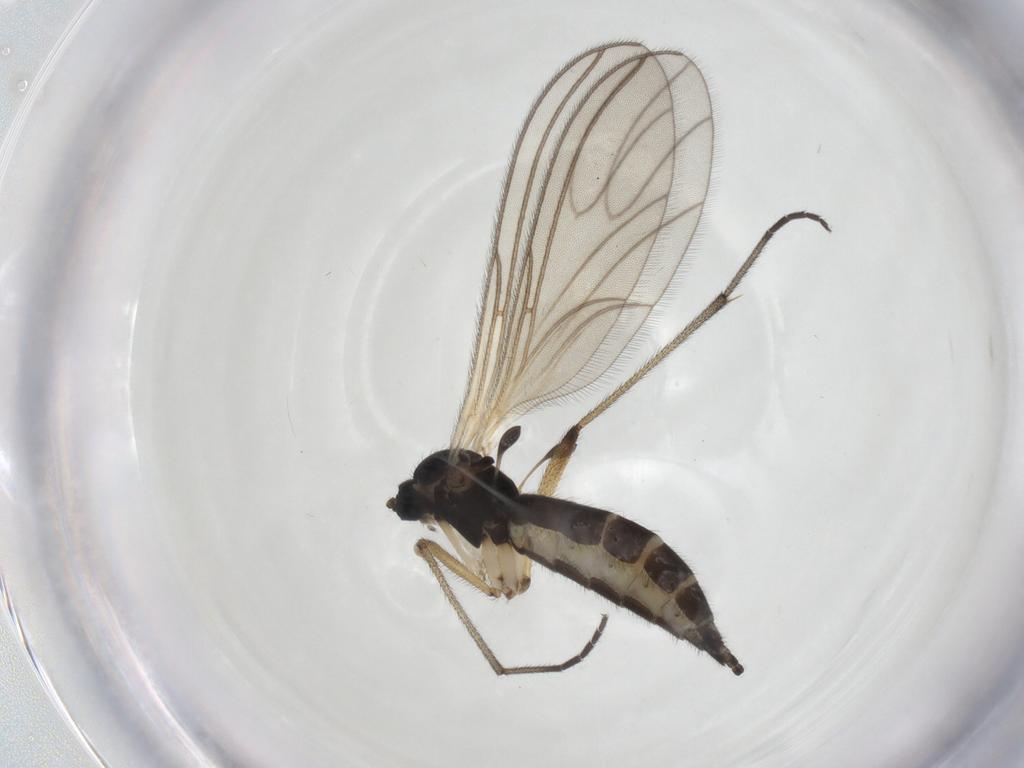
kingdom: Animalia
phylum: Arthropoda
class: Insecta
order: Diptera
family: Sciaridae
